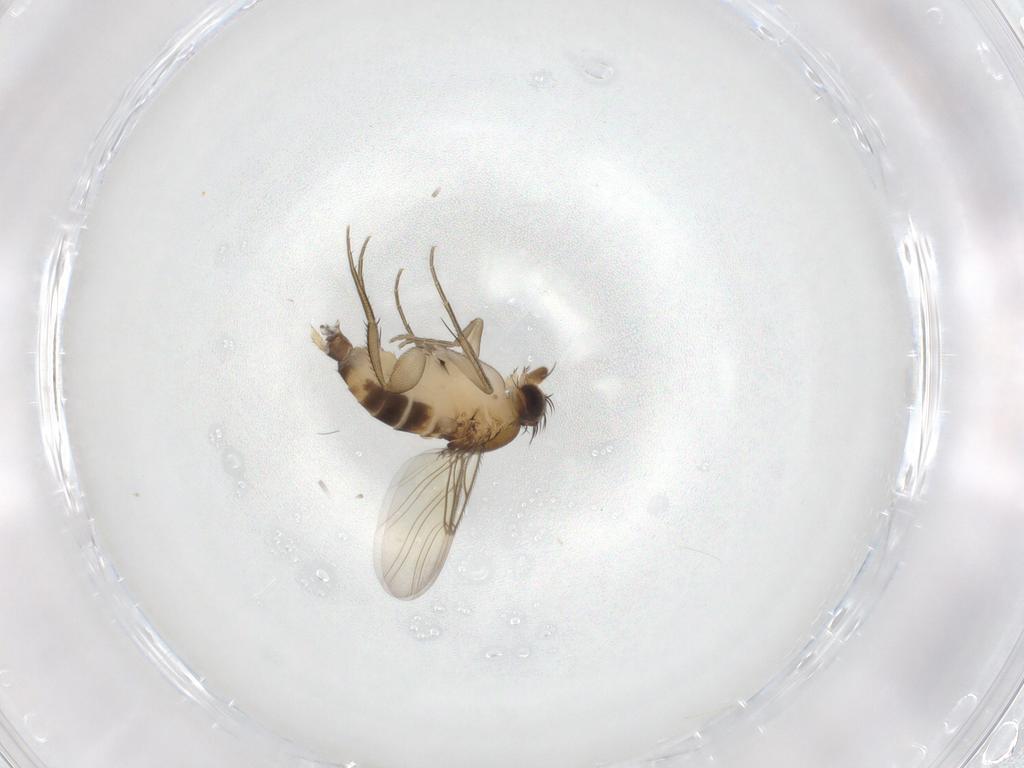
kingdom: Animalia
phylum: Arthropoda
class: Insecta
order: Diptera
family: Phoridae
